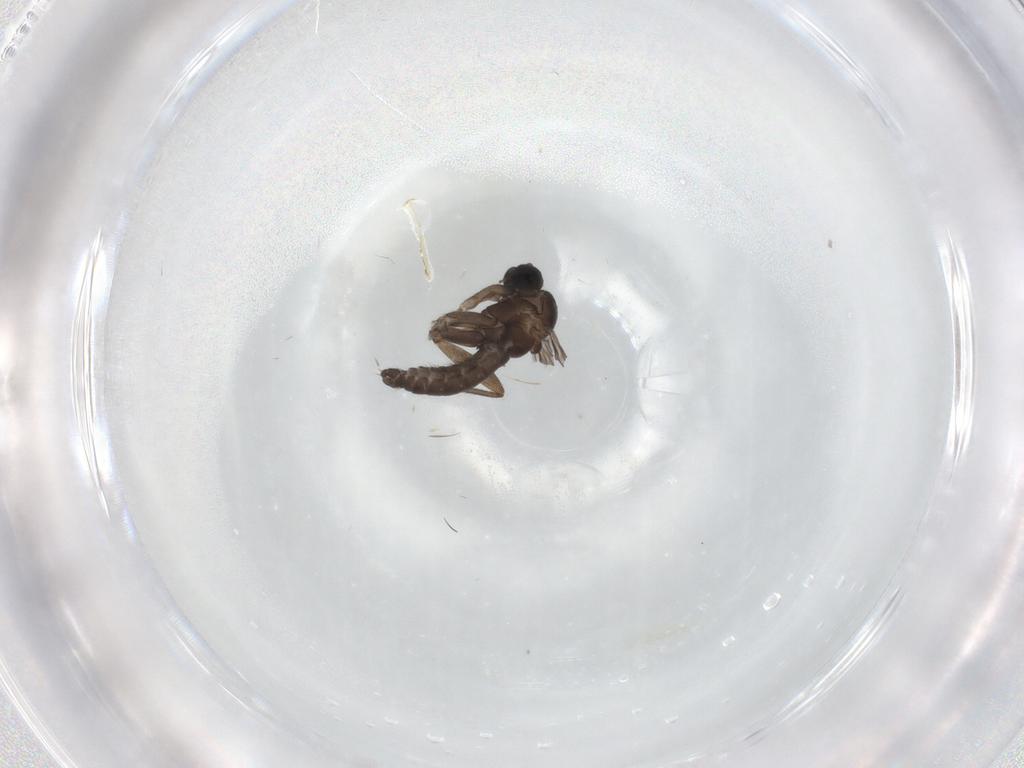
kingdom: Animalia
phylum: Arthropoda
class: Insecta
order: Diptera
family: Sciaridae
